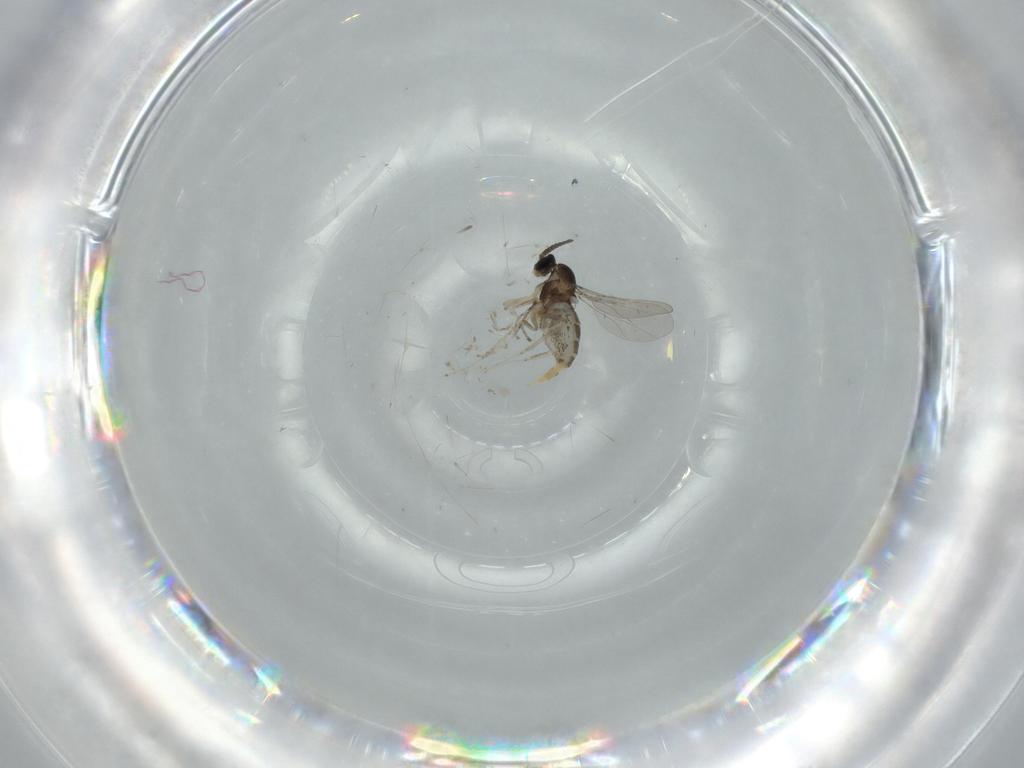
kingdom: Animalia
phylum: Arthropoda
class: Insecta
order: Diptera
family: Cecidomyiidae
